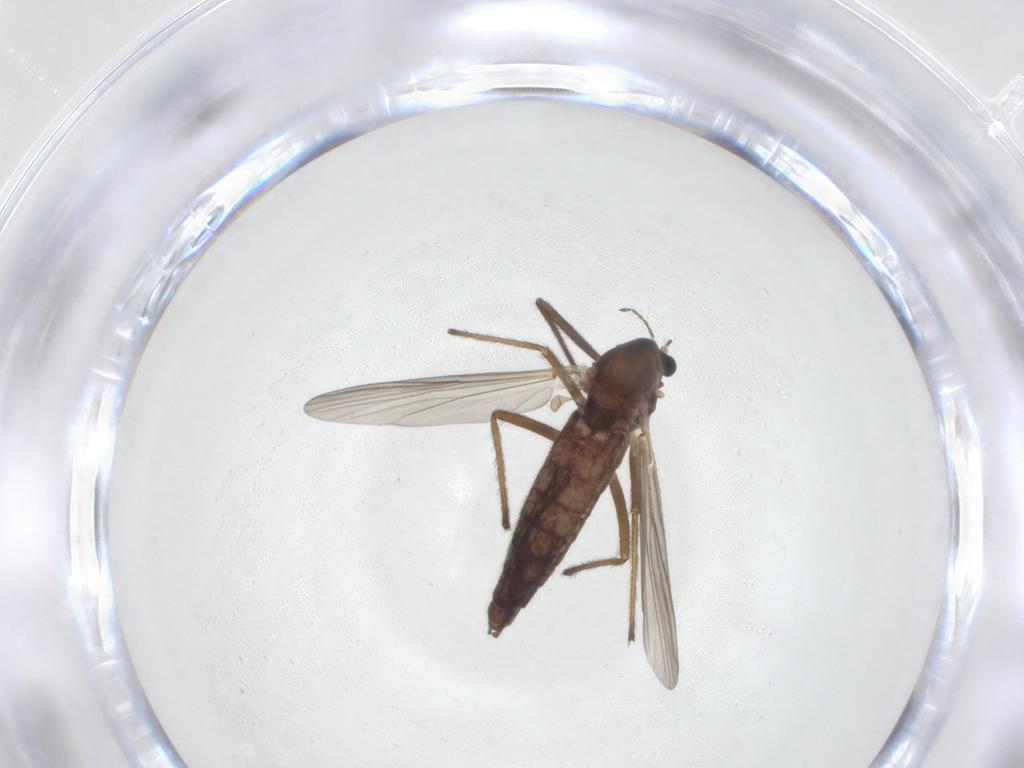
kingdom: Animalia
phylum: Arthropoda
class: Insecta
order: Diptera
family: Chironomidae
